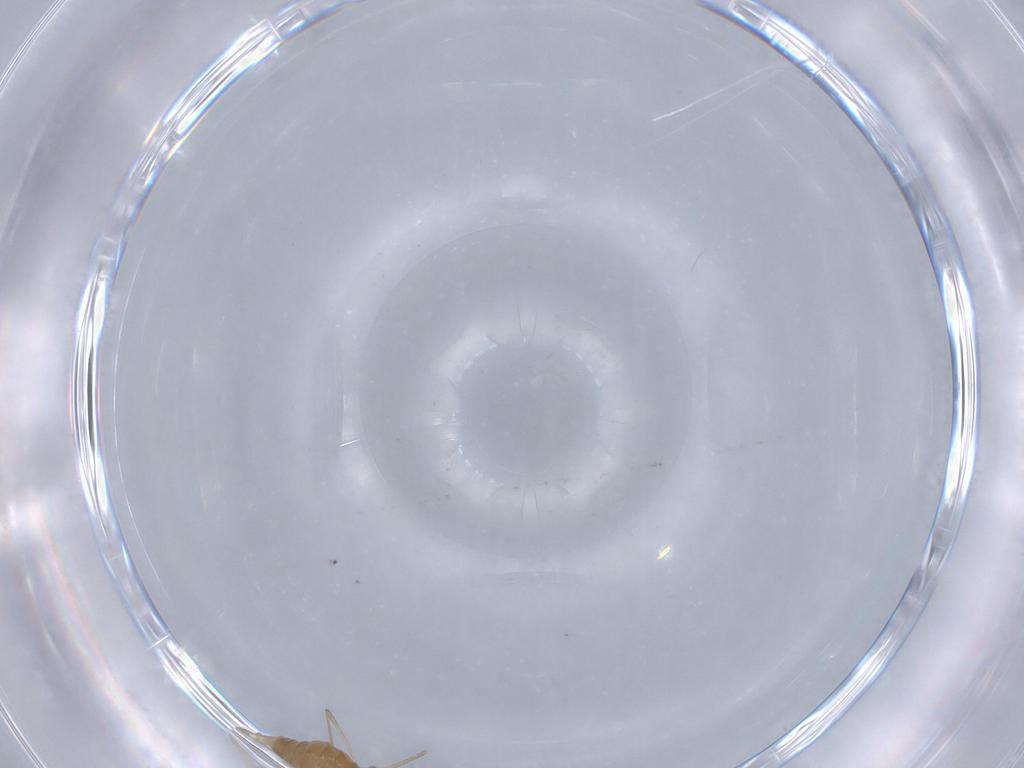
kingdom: Animalia
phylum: Arthropoda
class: Insecta
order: Diptera
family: Cecidomyiidae
